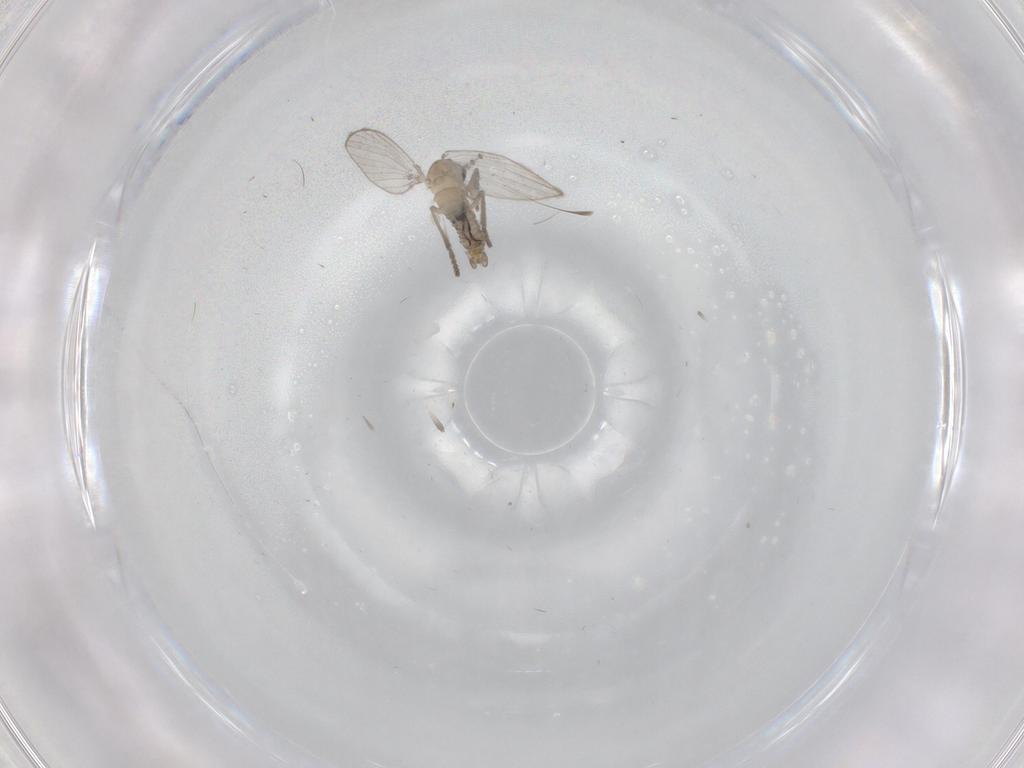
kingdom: Animalia
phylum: Arthropoda
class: Insecta
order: Diptera
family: Psychodidae
